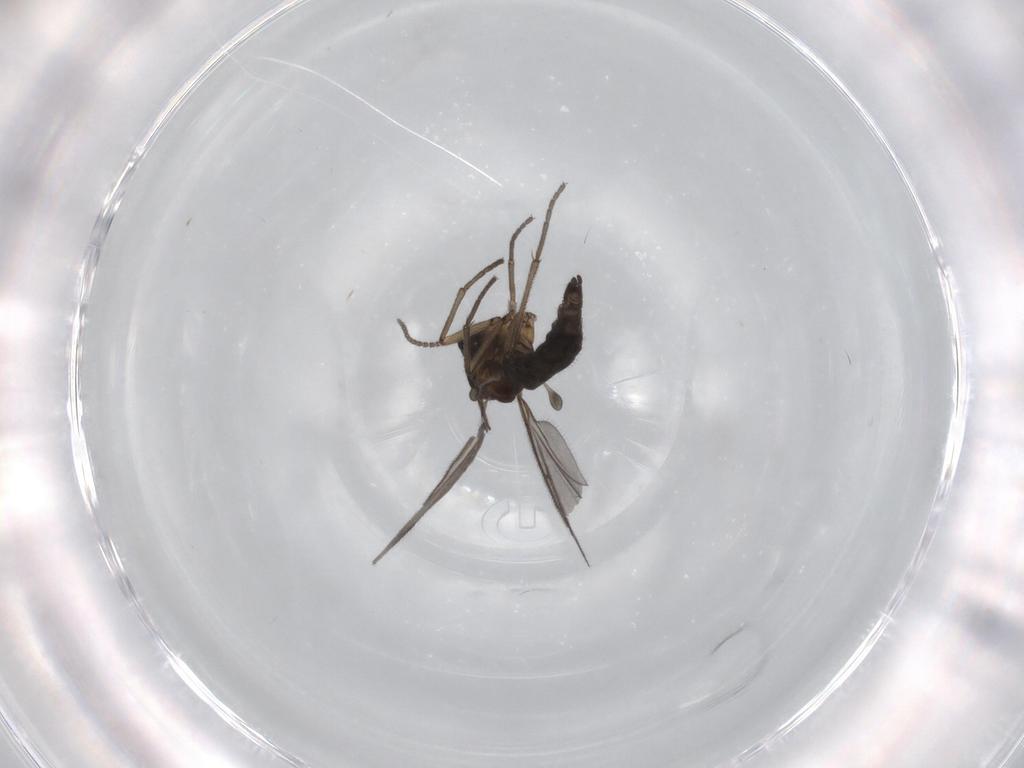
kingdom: Animalia
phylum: Arthropoda
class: Insecta
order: Diptera
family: Sciaridae
